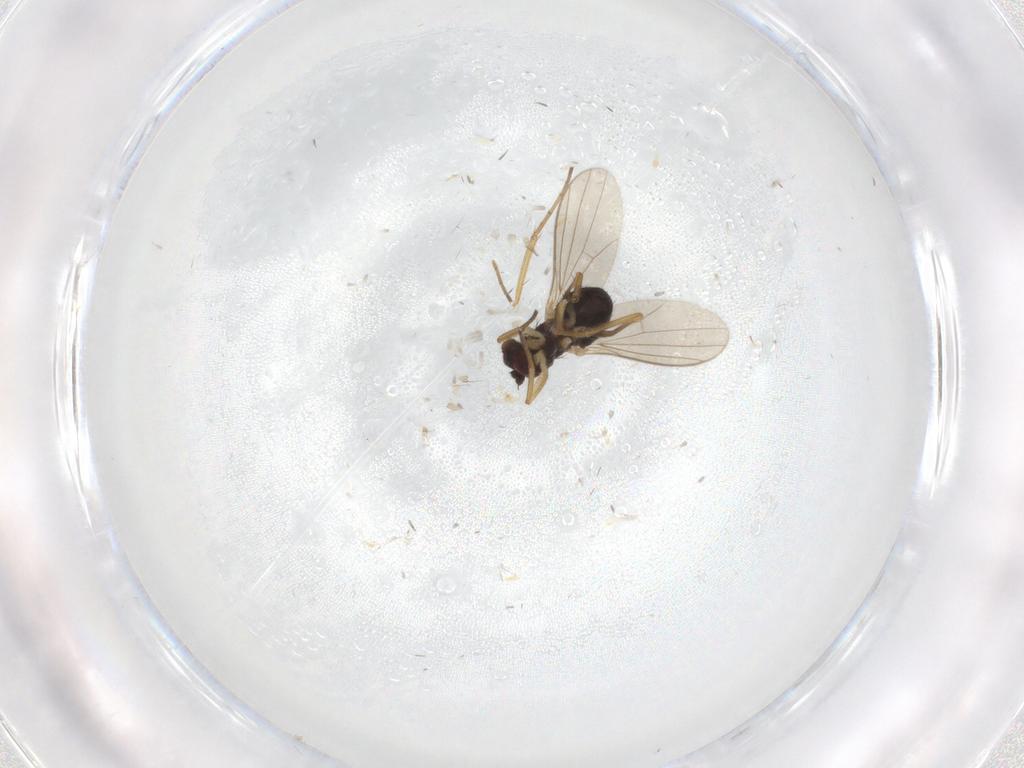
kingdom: Animalia
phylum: Arthropoda
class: Insecta
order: Diptera
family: Dolichopodidae
